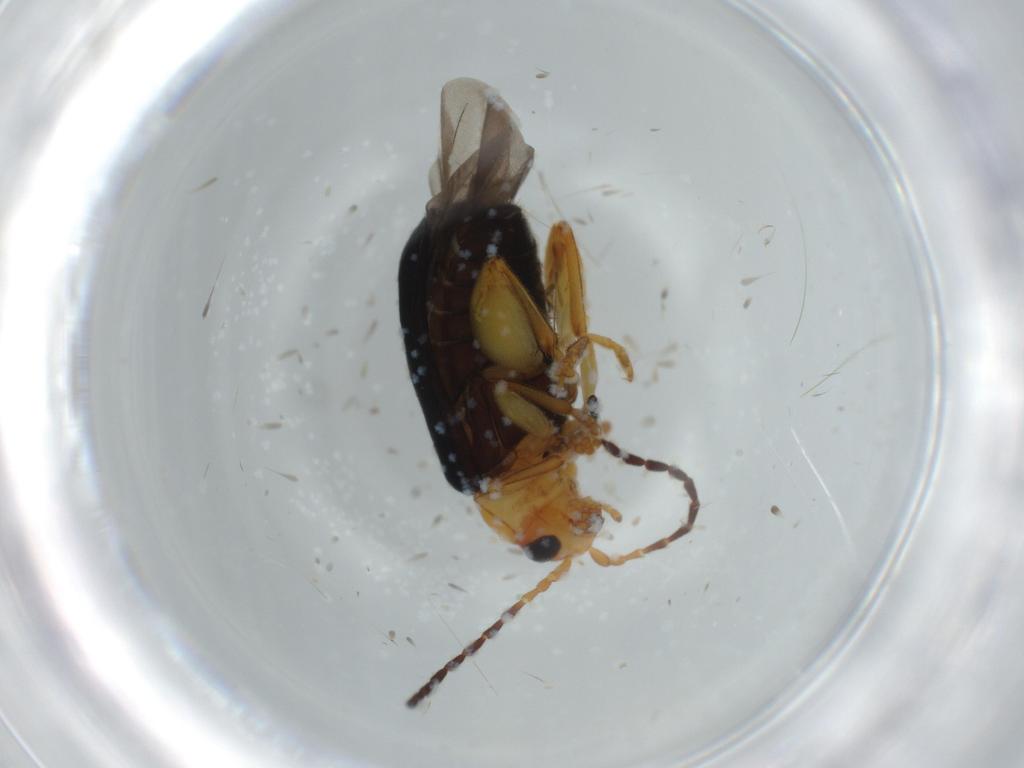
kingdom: Animalia
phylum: Arthropoda
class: Insecta
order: Coleoptera
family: Chrysomelidae
